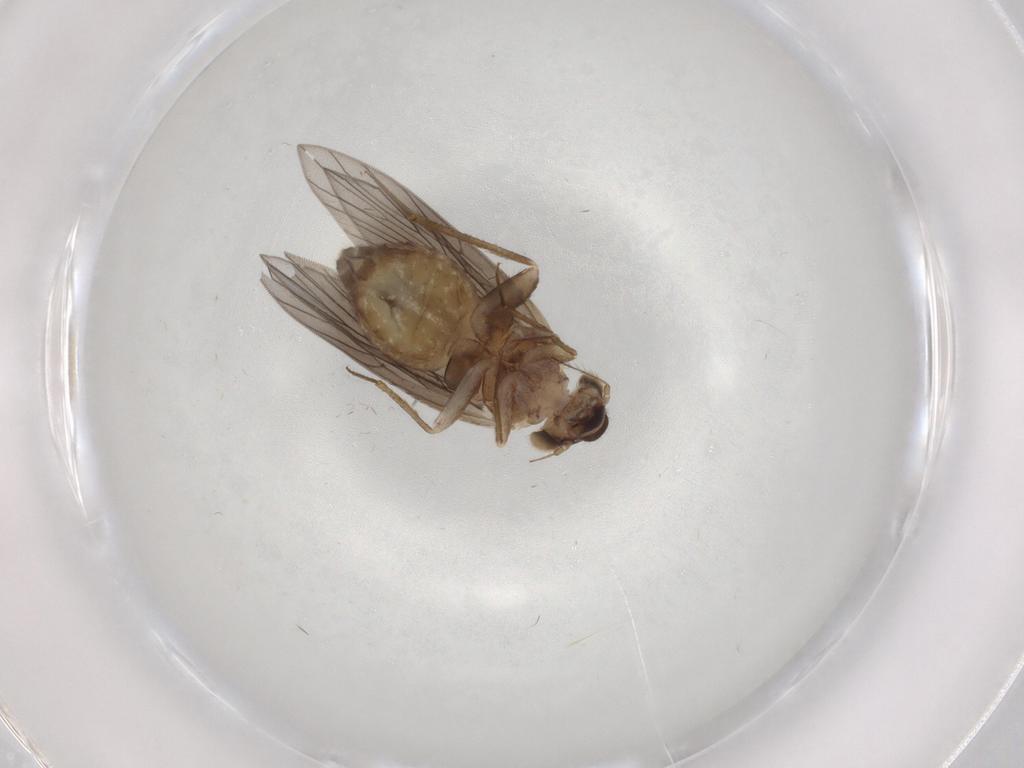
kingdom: Animalia
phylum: Arthropoda
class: Insecta
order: Psocodea
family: Lepidopsocidae
